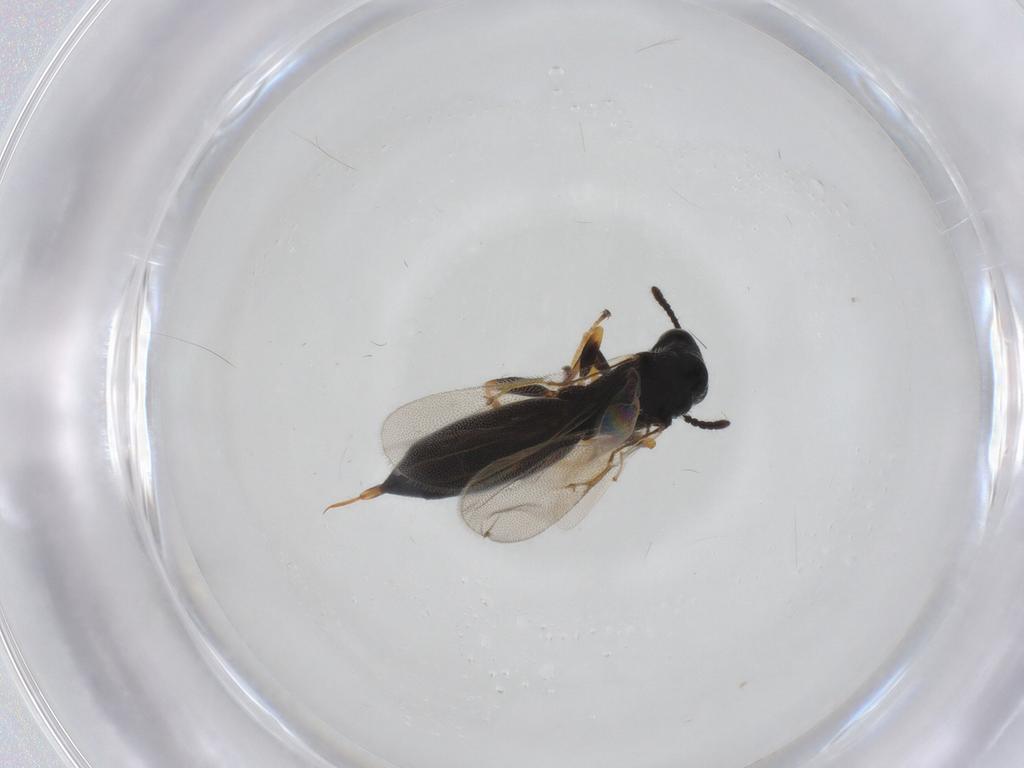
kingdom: Animalia
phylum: Arthropoda
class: Insecta
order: Hymenoptera
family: Eurytomidae
